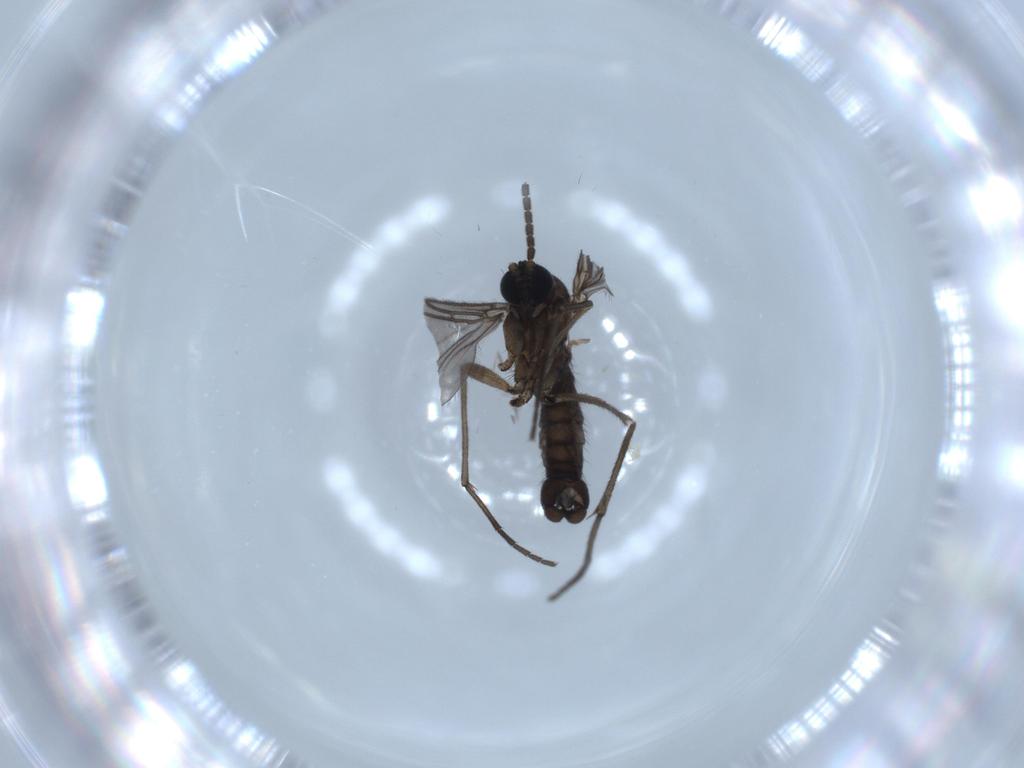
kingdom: Animalia
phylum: Arthropoda
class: Insecta
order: Diptera
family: Sciaridae
